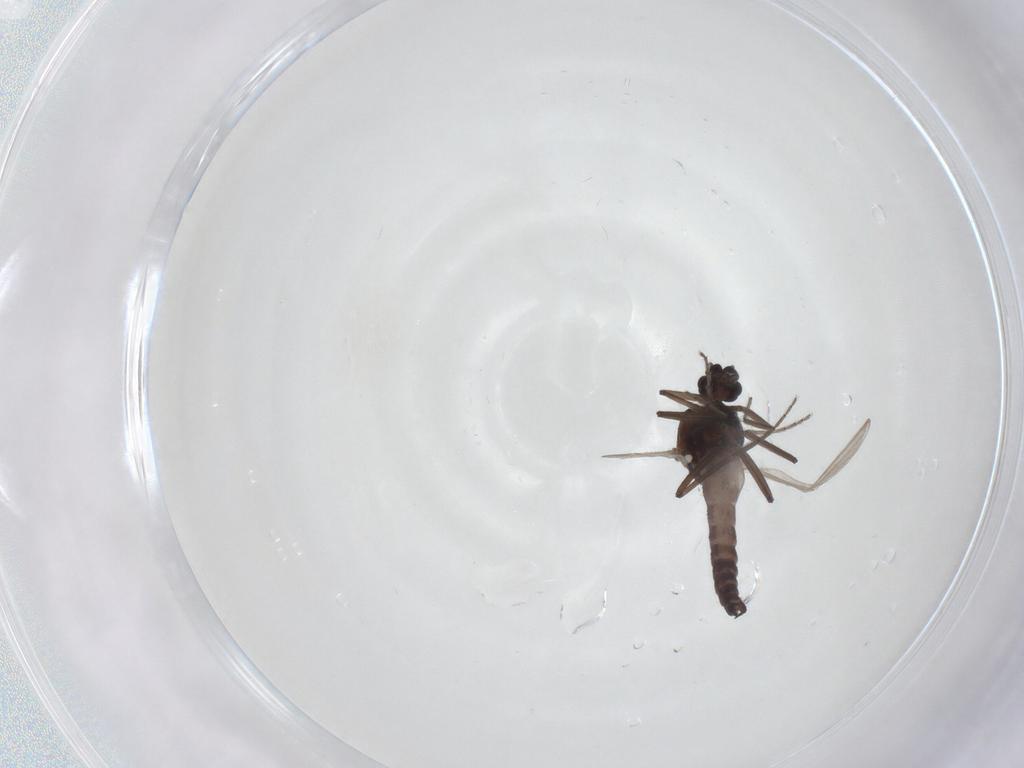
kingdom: Animalia
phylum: Arthropoda
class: Insecta
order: Diptera
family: Ceratopogonidae
